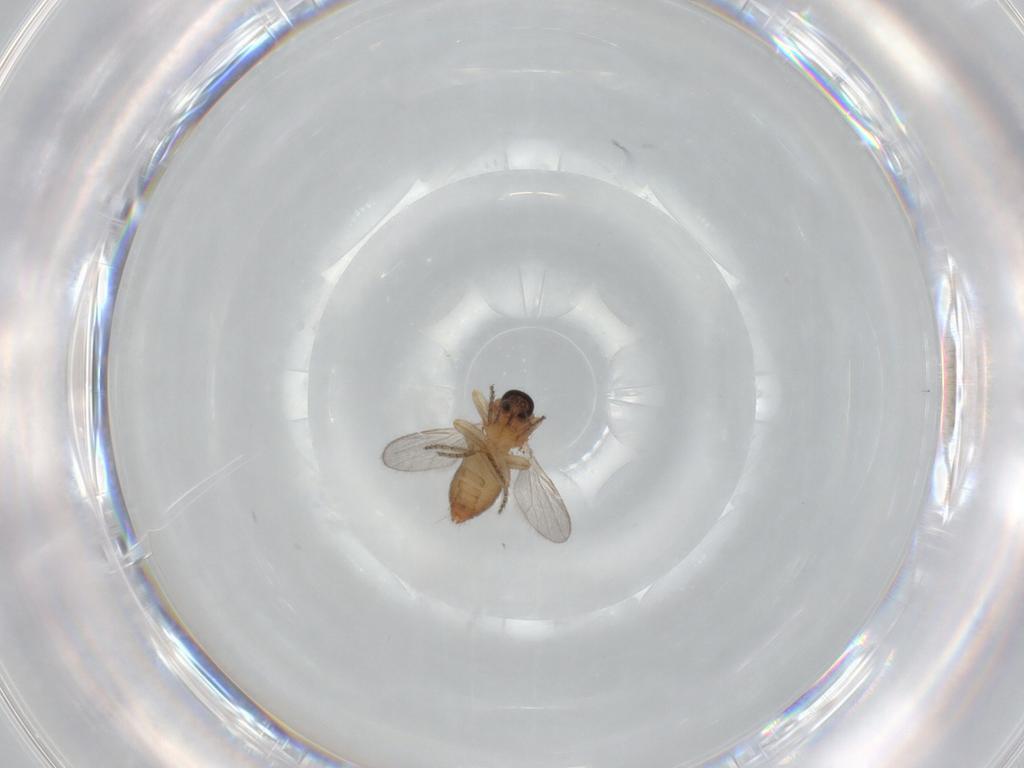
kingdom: Animalia
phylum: Arthropoda
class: Insecta
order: Diptera
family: Ceratopogonidae
